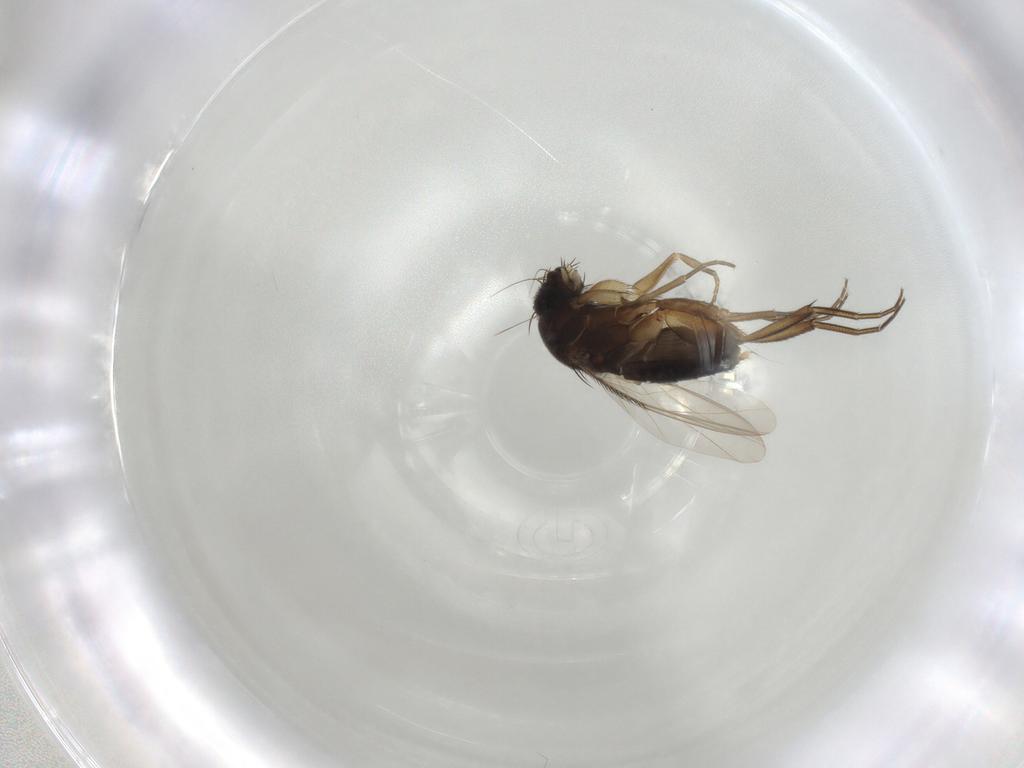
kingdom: Animalia
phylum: Arthropoda
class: Insecta
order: Diptera
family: Phoridae
